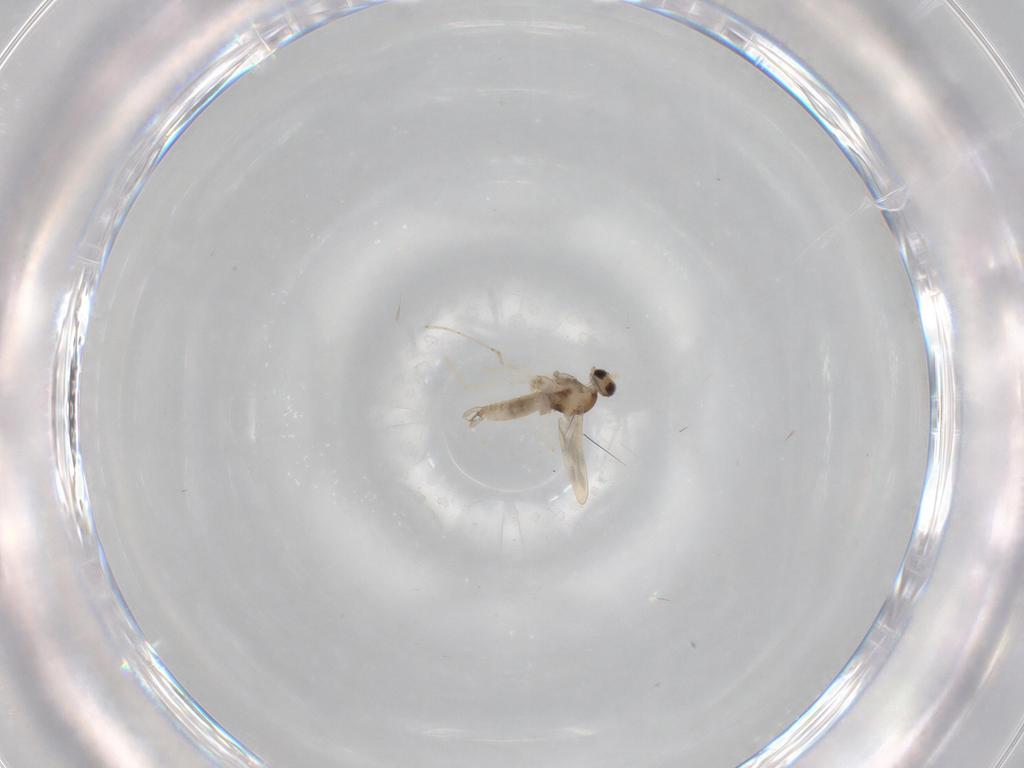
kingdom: Animalia
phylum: Arthropoda
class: Insecta
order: Diptera
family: Cecidomyiidae
